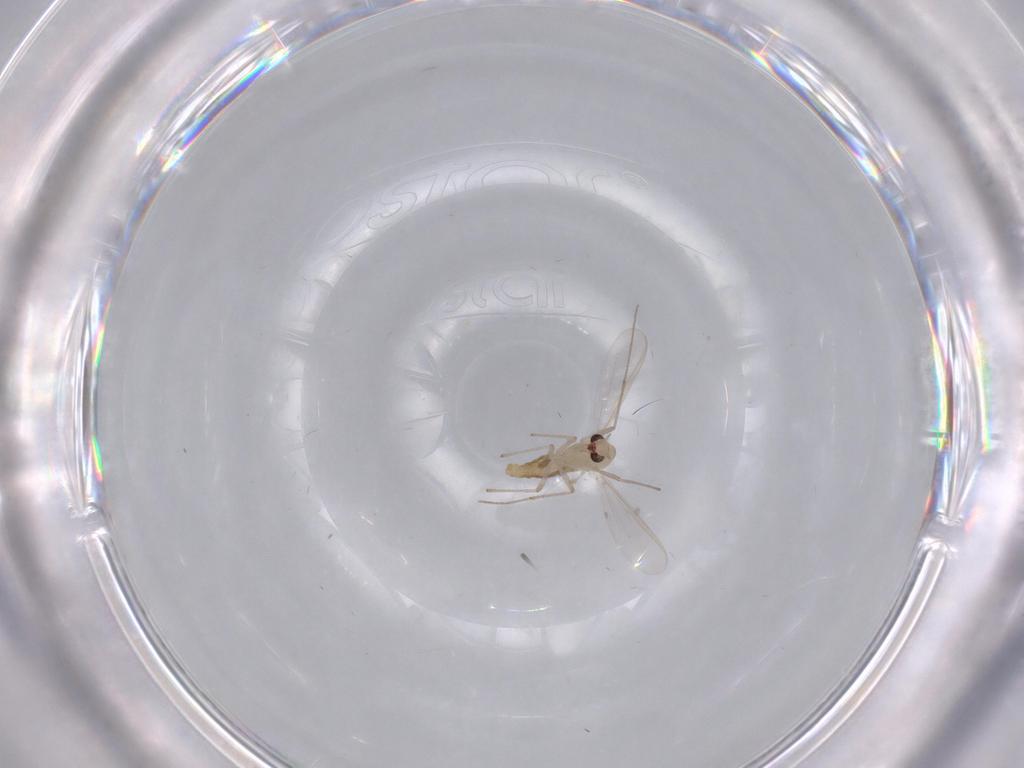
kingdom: Animalia
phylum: Arthropoda
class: Insecta
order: Diptera
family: Chironomidae
